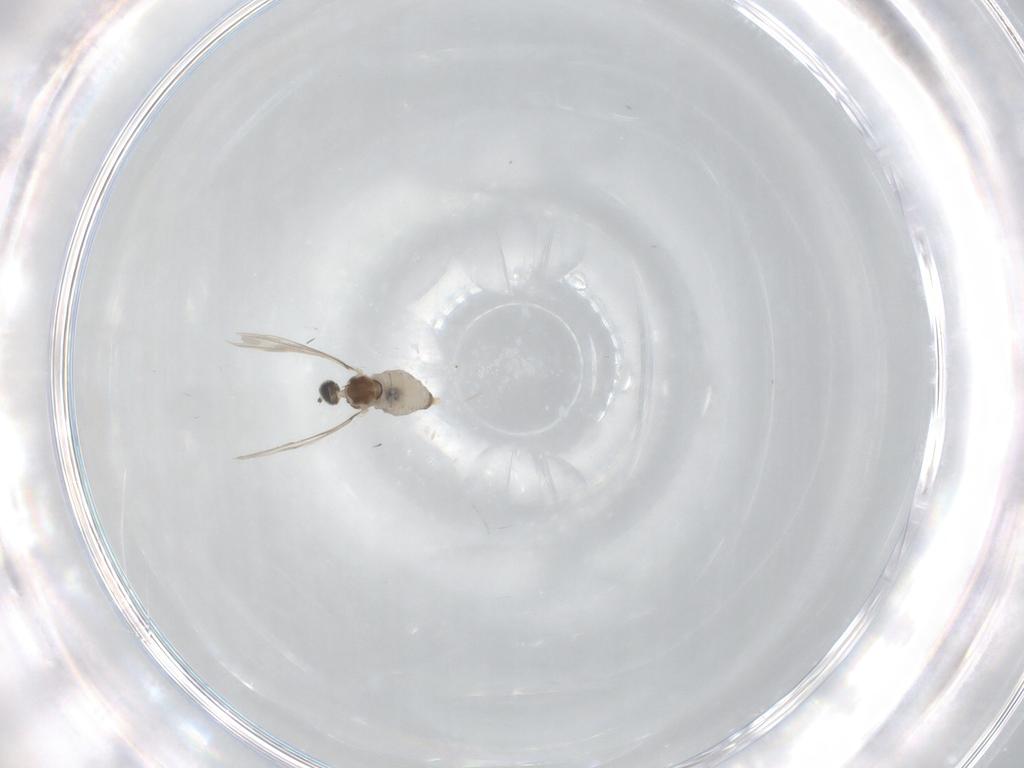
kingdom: Animalia
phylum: Arthropoda
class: Insecta
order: Diptera
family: Cecidomyiidae
